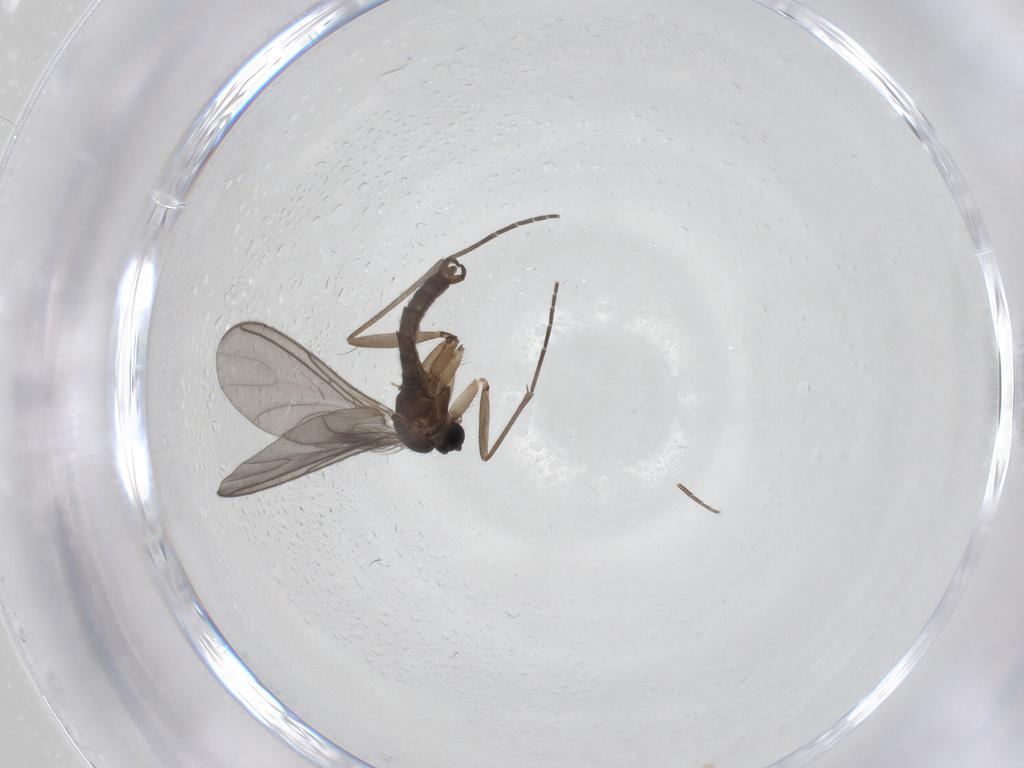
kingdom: Animalia
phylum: Arthropoda
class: Insecta
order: Diptera
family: Sciaridae
